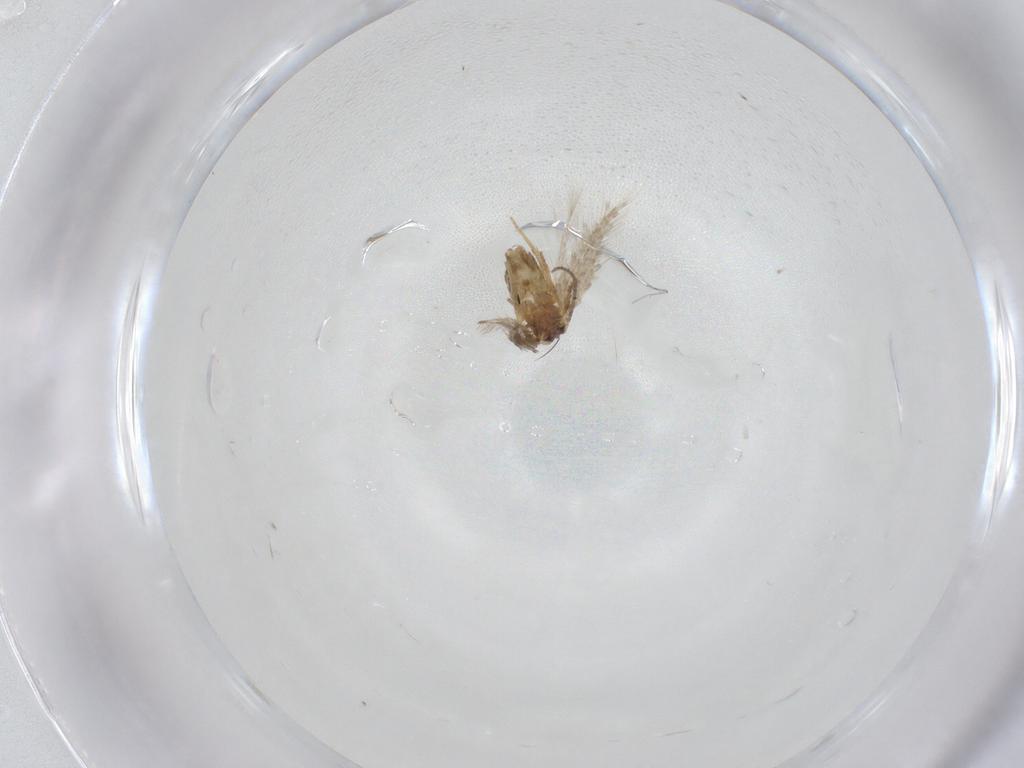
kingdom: Animalia
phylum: Arthropoda
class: Insecta
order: Lepidoptera
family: Nepticulidae
